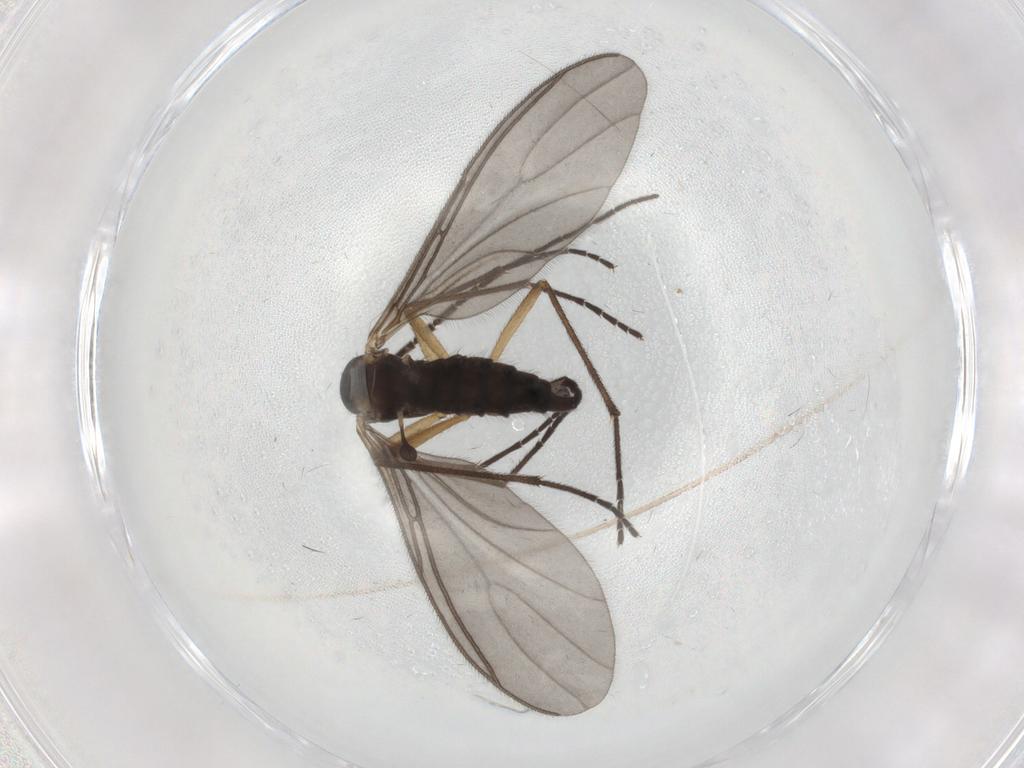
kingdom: Animalia
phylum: Arthropoda
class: Insecta
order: Diptera
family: Sciaridae
